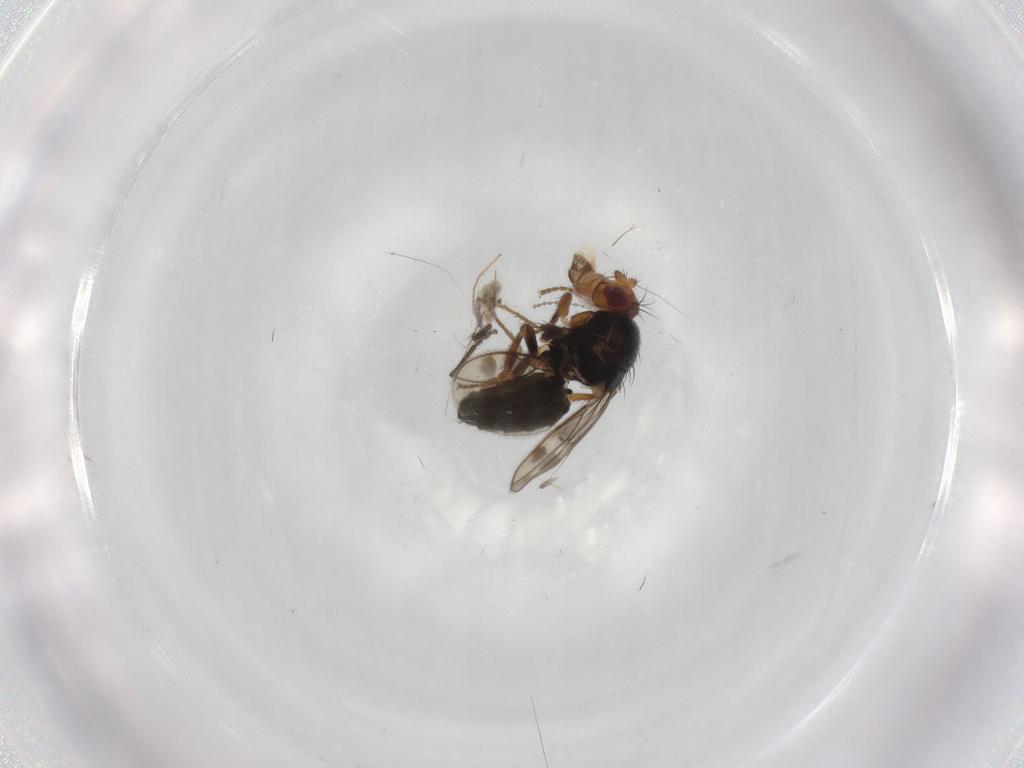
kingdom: Animalia
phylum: Arthropoda
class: Insecta
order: Diptera
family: Sphaeroceridae
